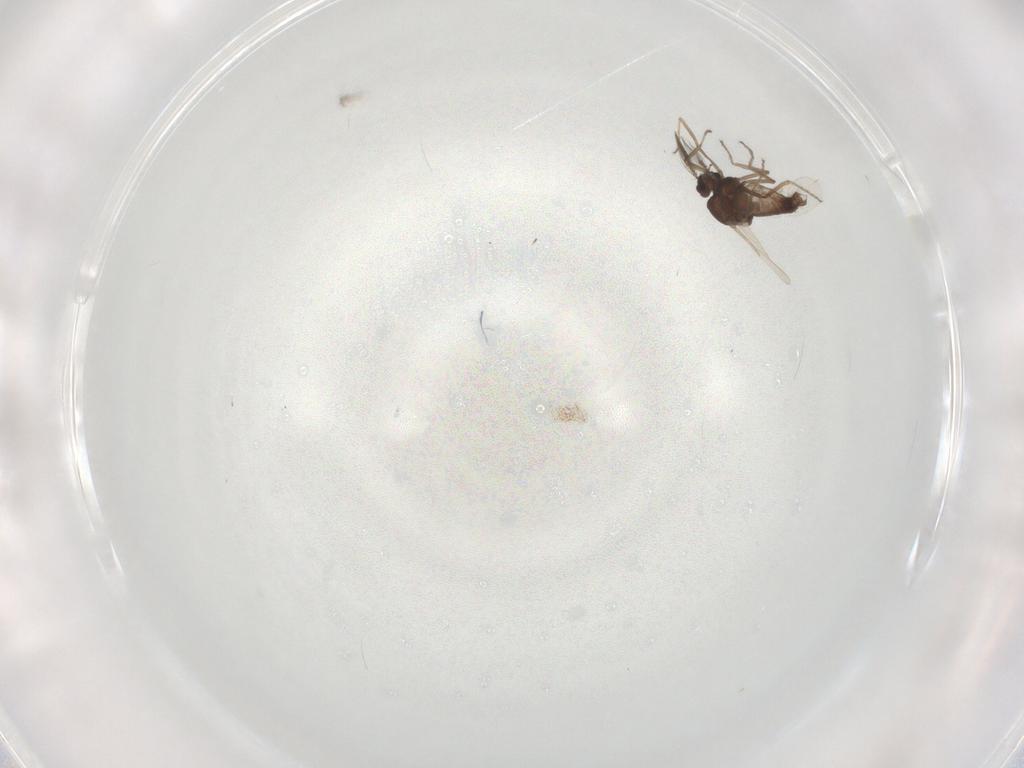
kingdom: Animalia
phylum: Arthropoda
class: Insecta
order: Diptera
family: Ceratopogonidae
